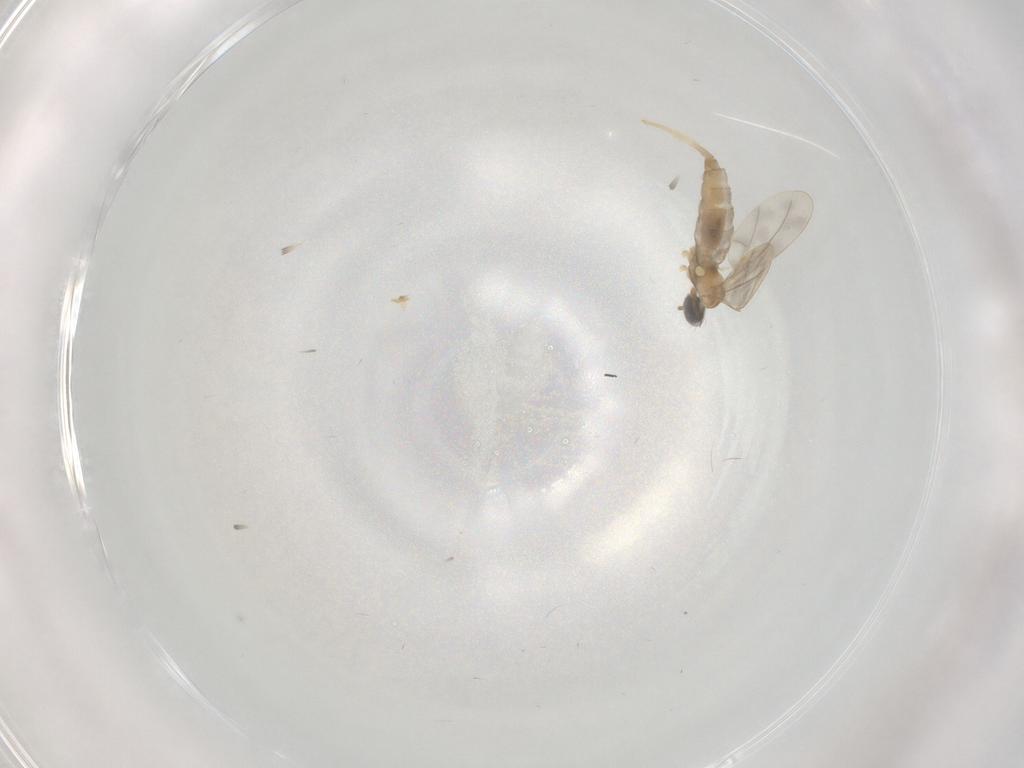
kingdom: Animalia
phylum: Arthropoda
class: Insecta
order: Diptera
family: Cecidomyiidae
